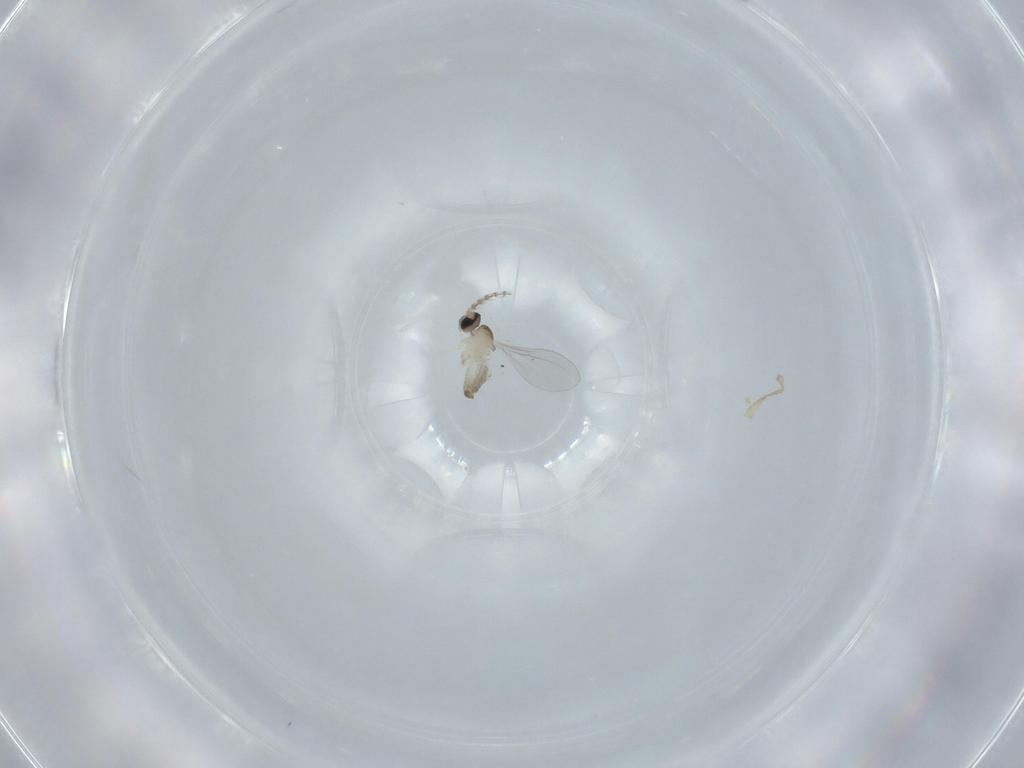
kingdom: Animalia
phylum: Arthropoda
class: Insecta
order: Diptera
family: Cecidomyiidae
